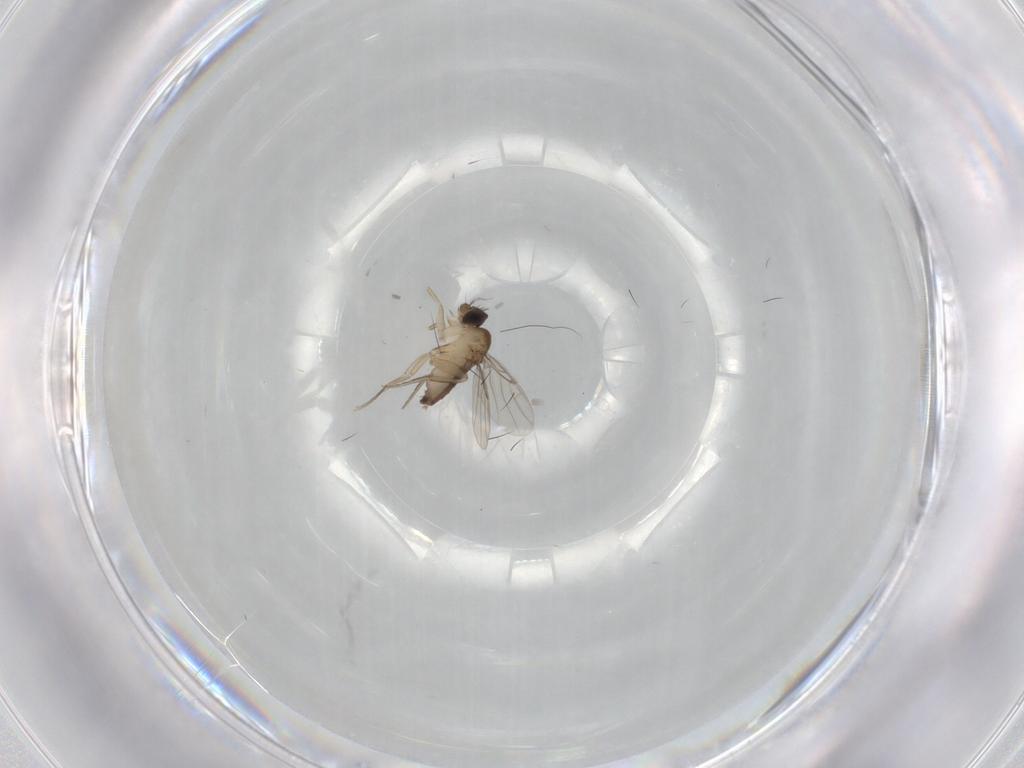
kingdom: Animalia
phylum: Arthropoda
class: Insecta
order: Diptera
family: Phoridae
